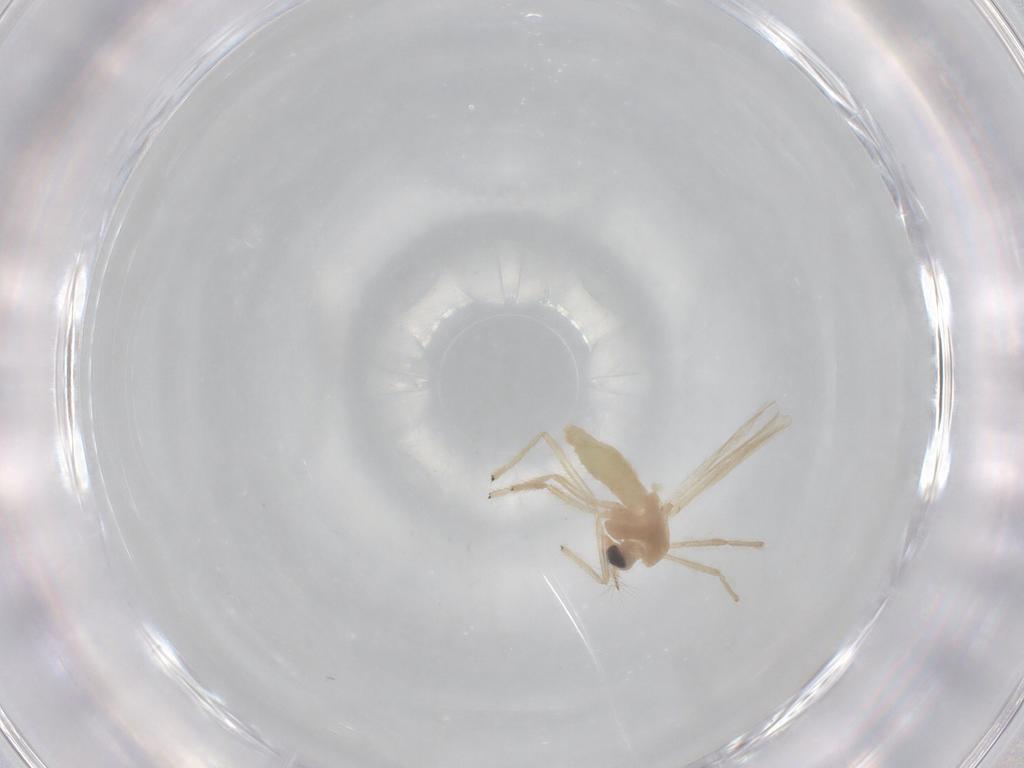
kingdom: Animalia
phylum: Arthropoda
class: Insecta
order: Diptera
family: Chironomidae
